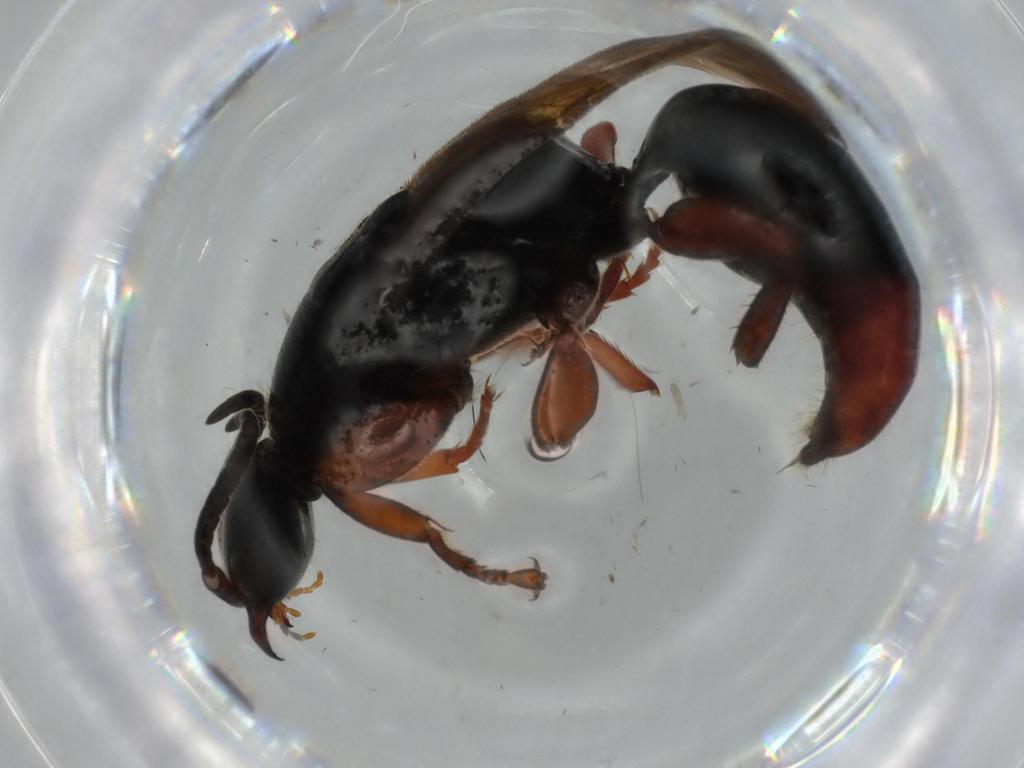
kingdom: Animalia
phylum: Arthropoda
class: Insecta
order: Hymenoptera
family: Bethylidae
